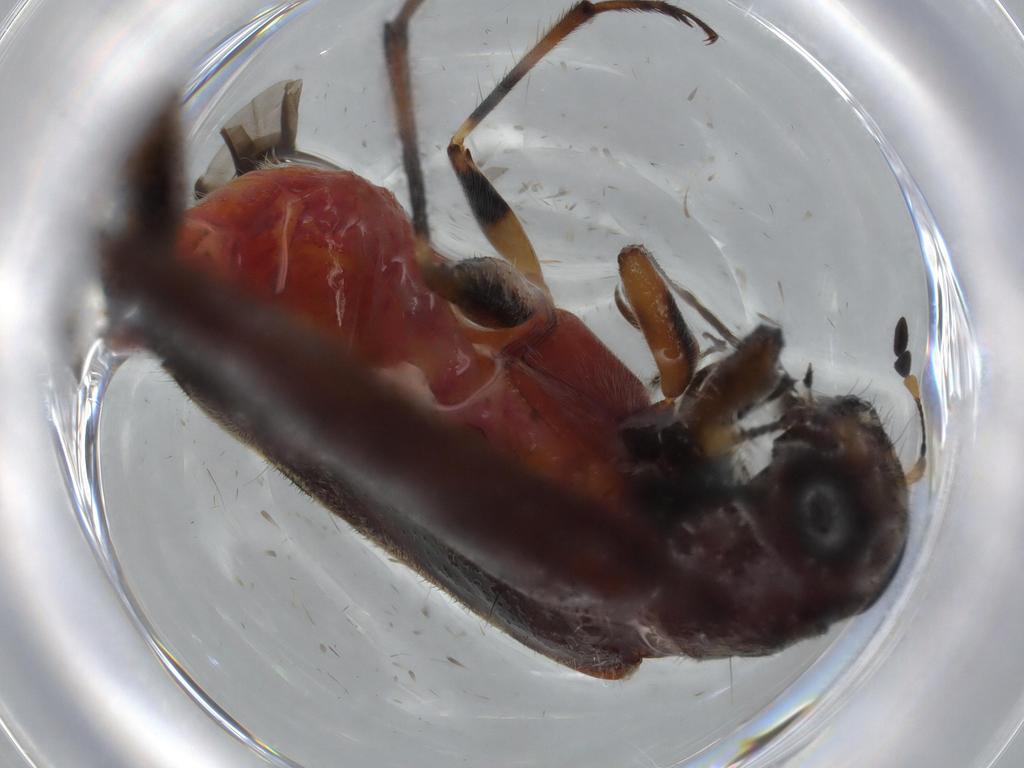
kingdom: Animalia
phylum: Arthropoda
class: Insecta
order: Coleoptera
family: Cleridae
